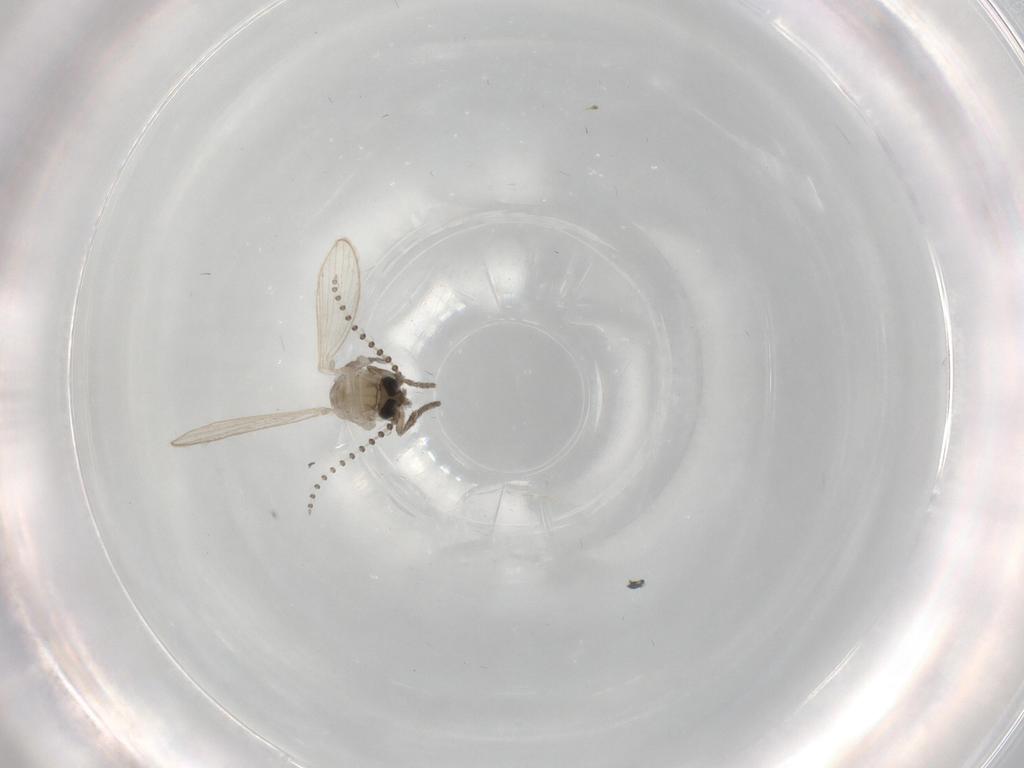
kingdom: Animalia
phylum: Arthropoda
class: Insecta
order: Diptera
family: Psychodidae
